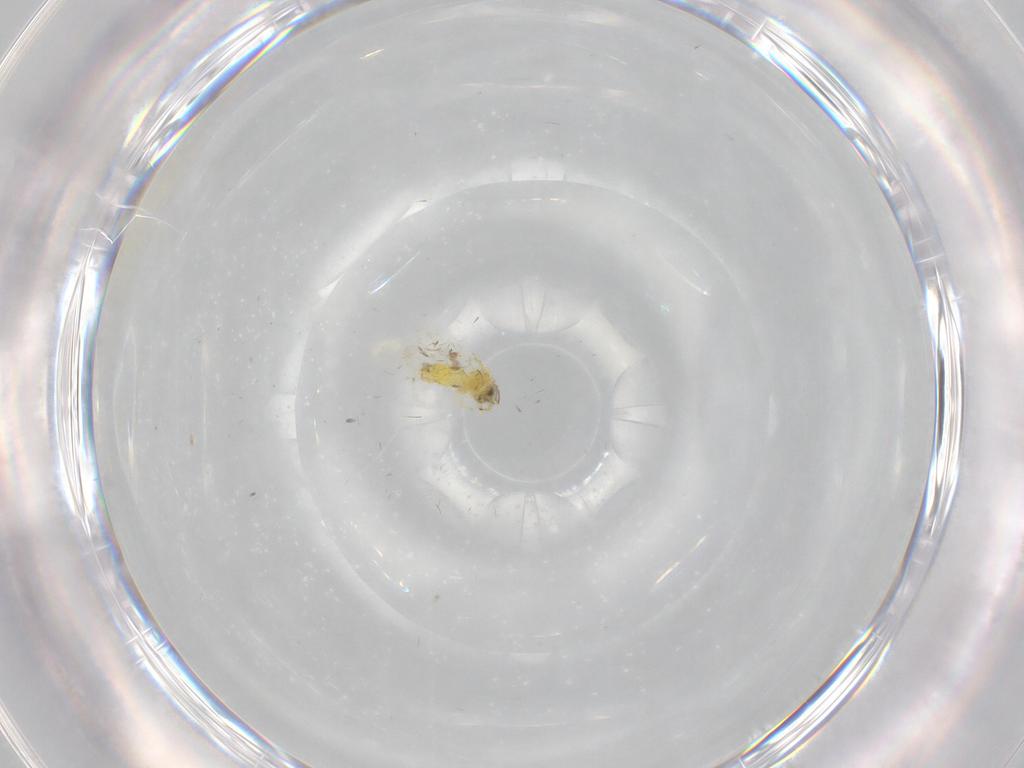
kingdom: Animalia
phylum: Arthropoda
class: Insecta
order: Hemiptera
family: Aleyrodidae
